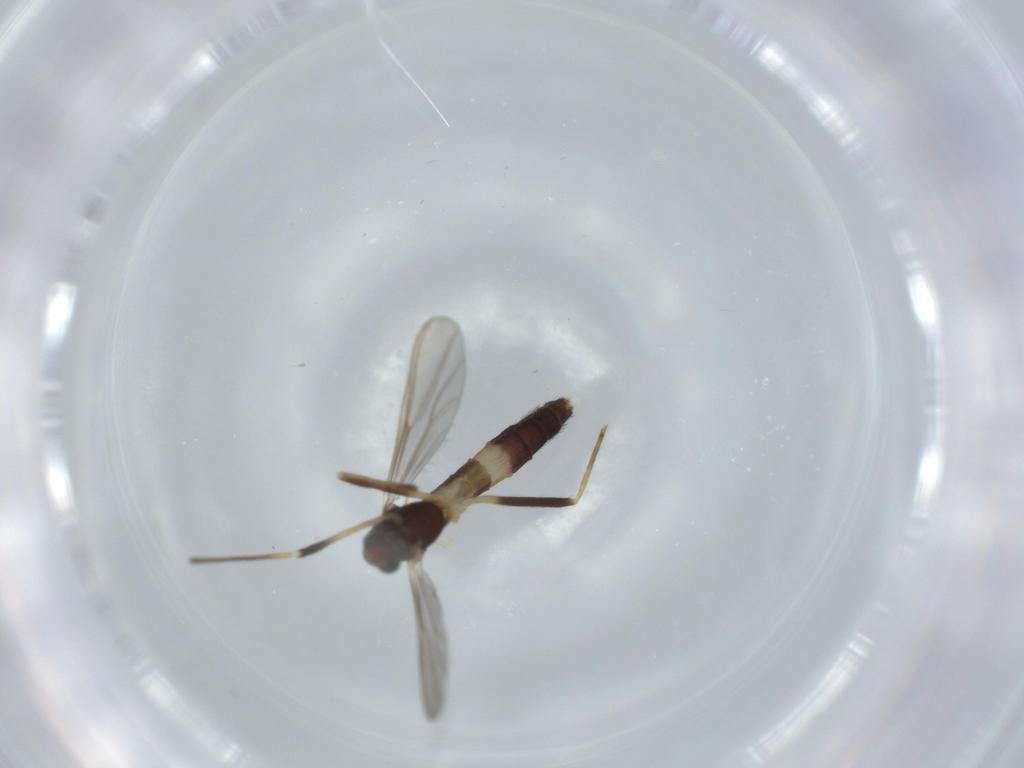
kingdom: Animalia
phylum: Arthropoda
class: Insecta
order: Diptera
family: Chironomidae
